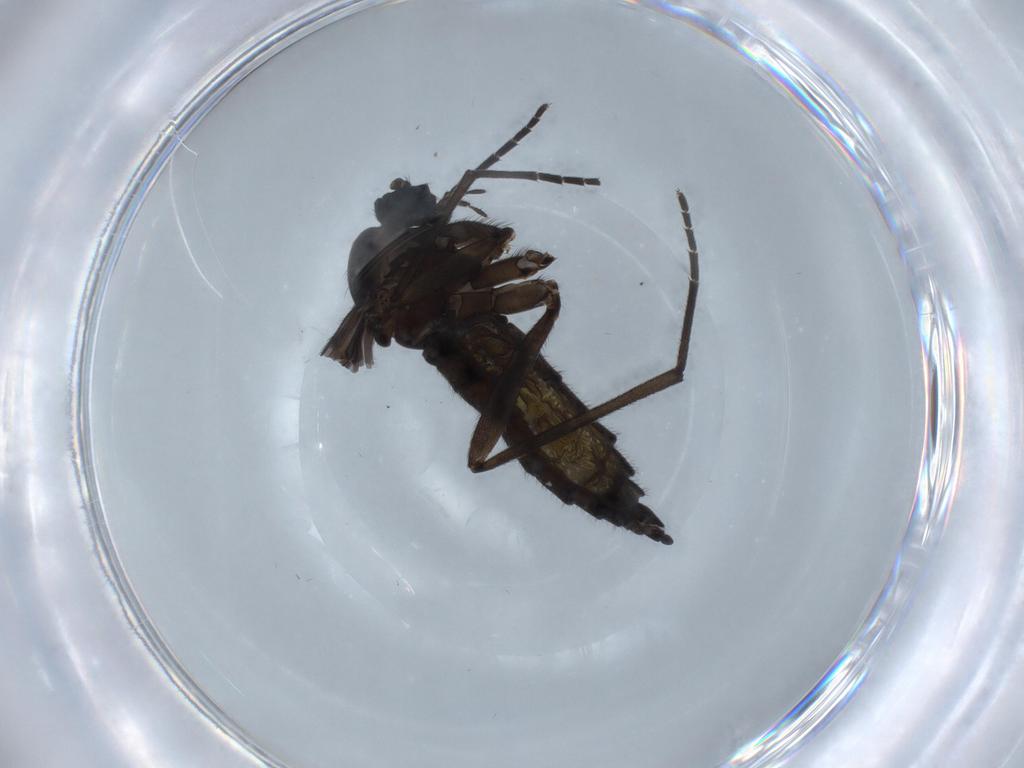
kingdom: Animalia
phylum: Arthropoda
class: Insecta
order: Diptera
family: Sciaridae
